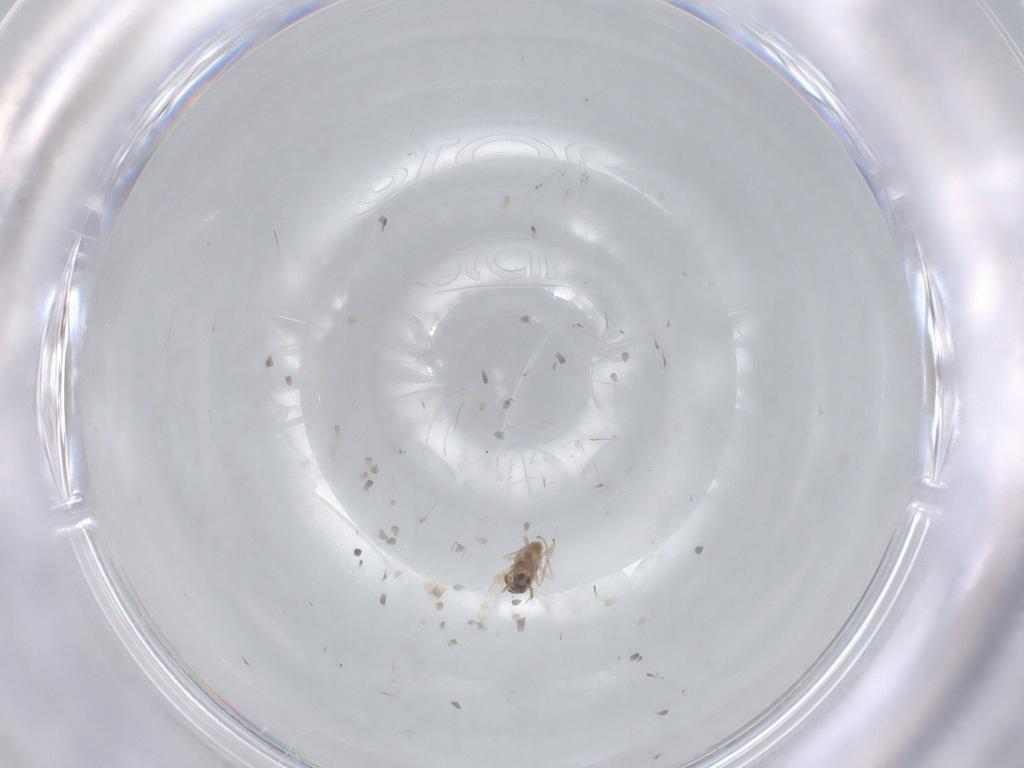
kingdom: Animalia
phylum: Arthropoda
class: Insecta
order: Diptera
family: Cecidomyiidae
